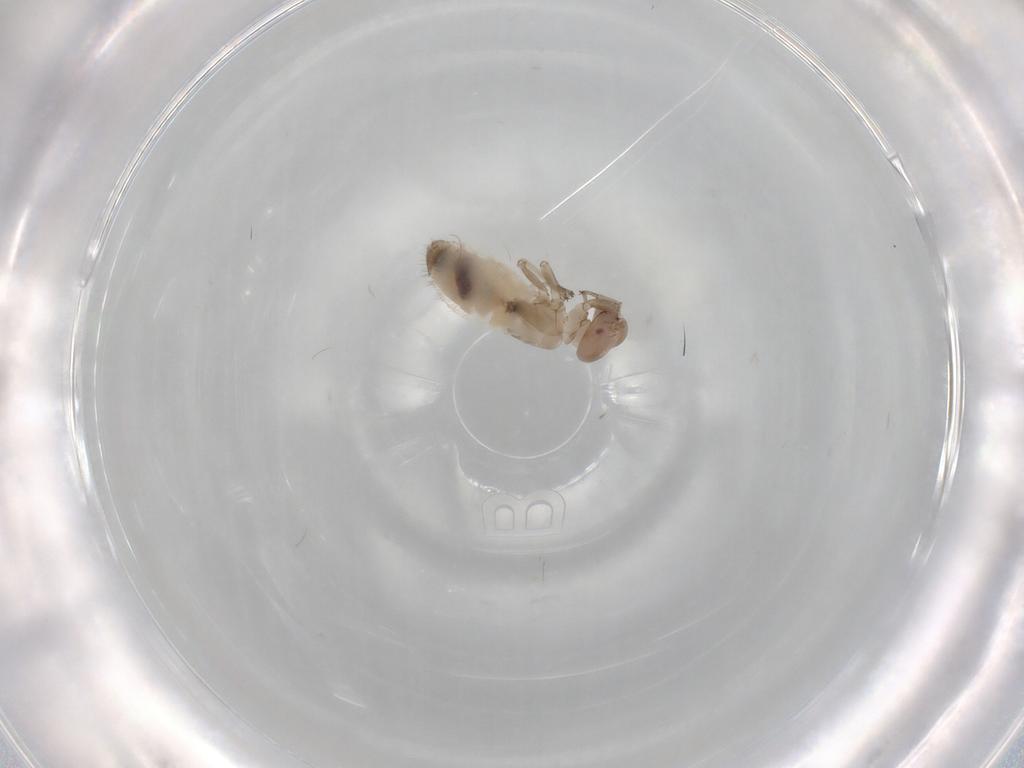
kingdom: Animalia
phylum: Arthropoda
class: Insecta
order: Psocodea
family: Elipsocidae
